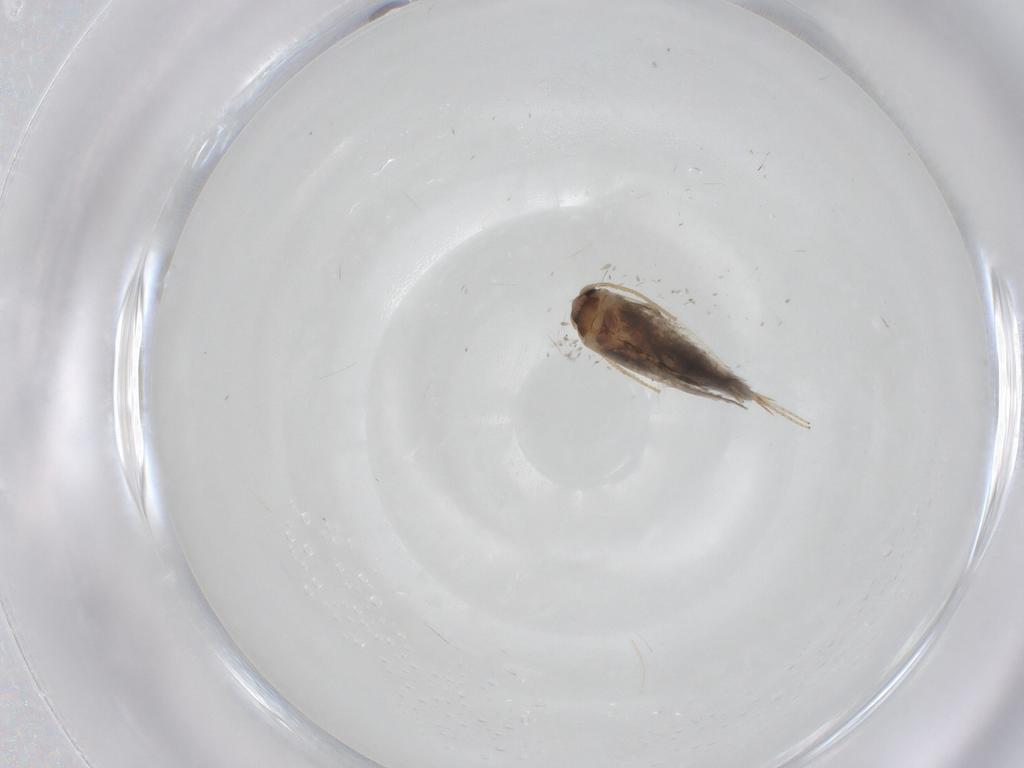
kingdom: Animalia
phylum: Arthropoda
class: Insecta
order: Lepidoptera
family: Nepticulidae
